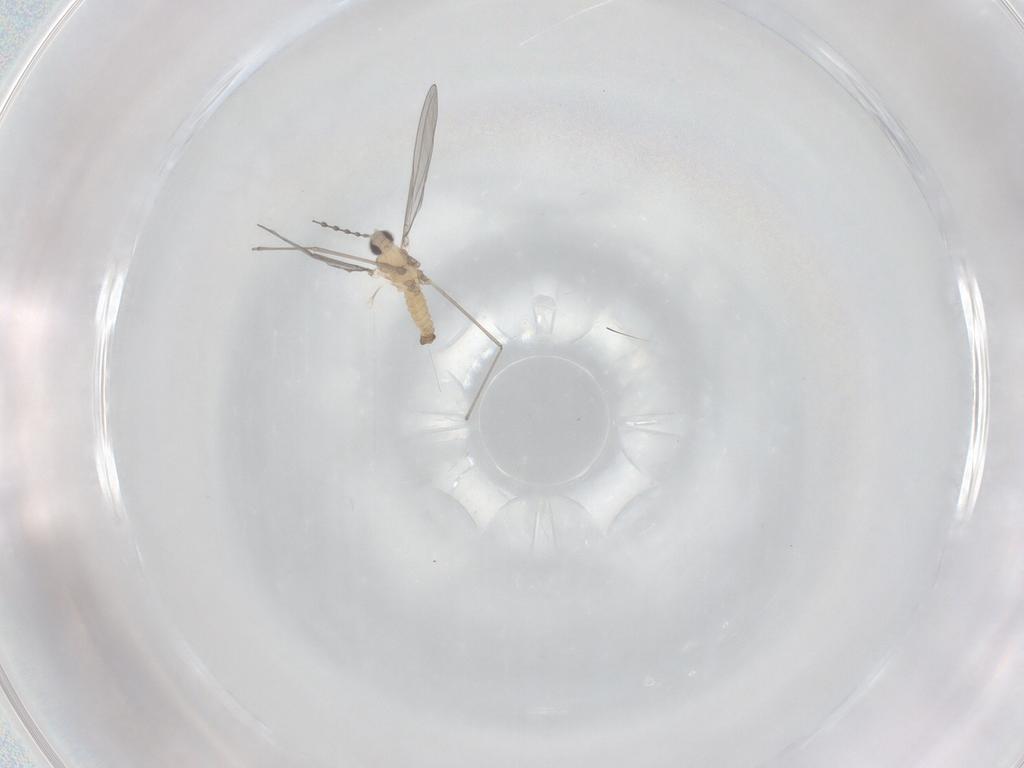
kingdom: Animalia
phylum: Arthropoda
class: Insecta
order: Diptera
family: Cecidomyiidae
